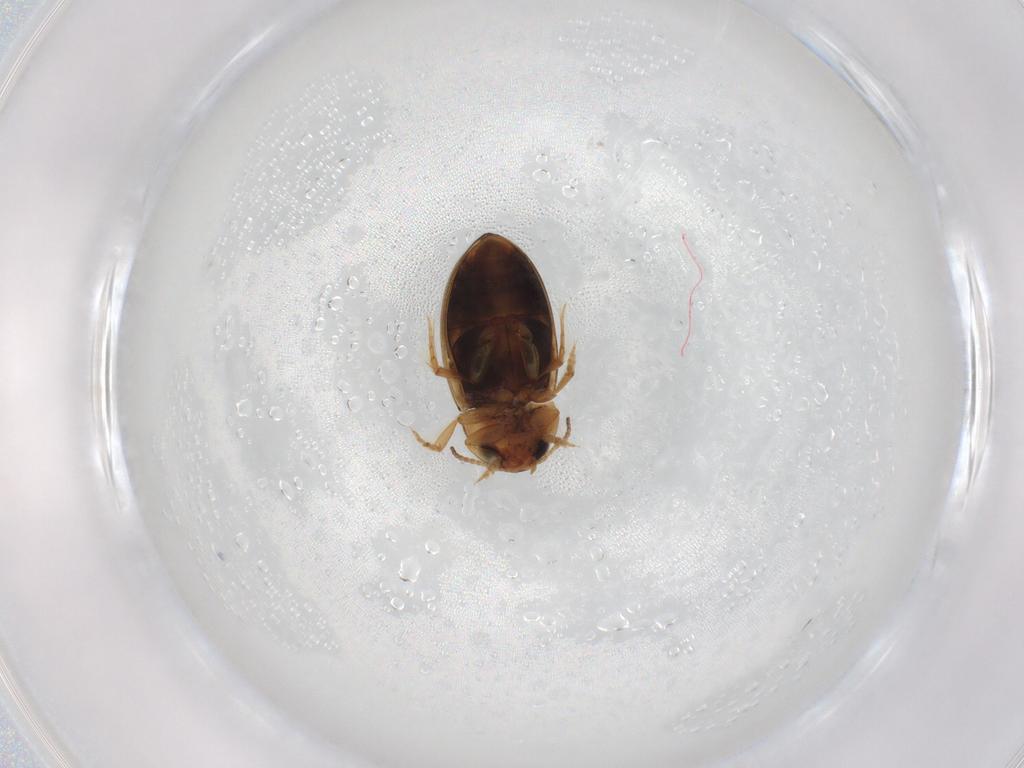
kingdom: Animalia
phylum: Arthropoda
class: Insecta
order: Coleoptera
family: Carabidae
